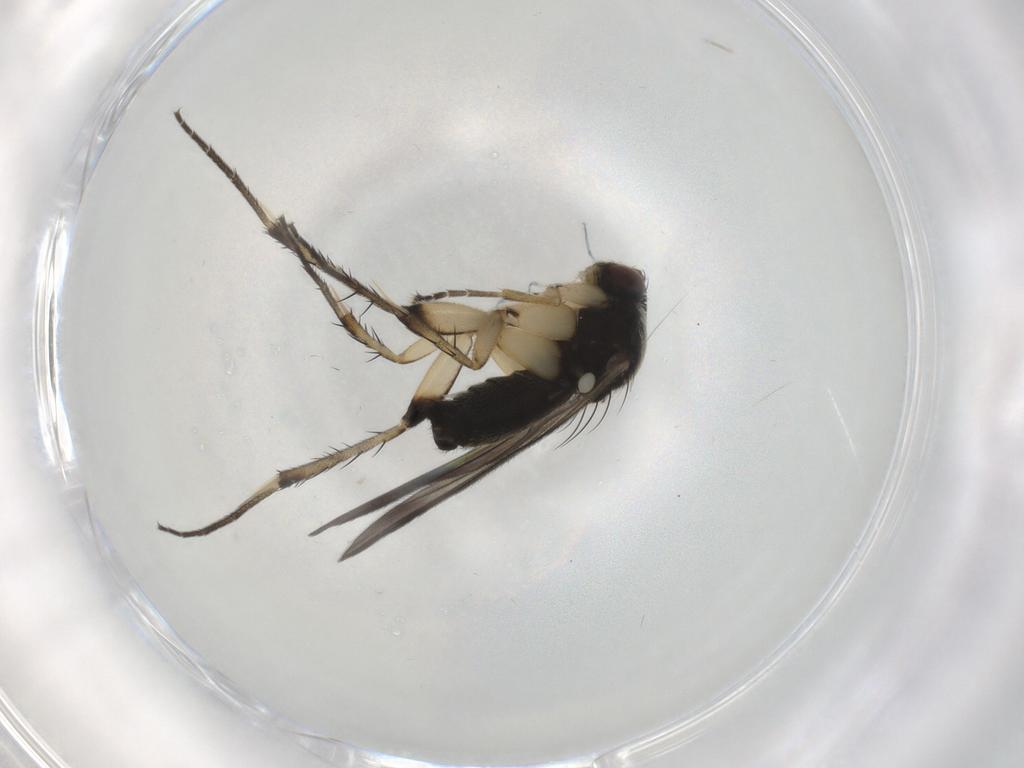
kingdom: Animalia
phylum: Arthropoda
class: Insecta
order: Diptera
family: Mycetophilidae
